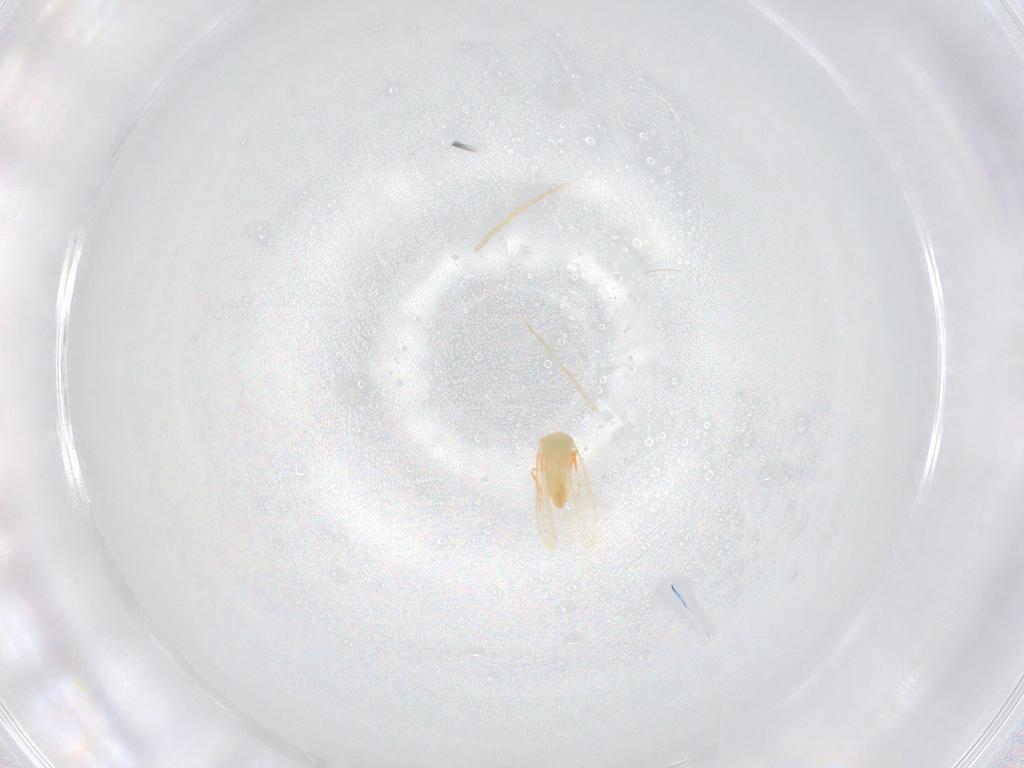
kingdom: Animalia
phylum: Arthropoda
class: Insecta
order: Hemiptera
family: Aleyrodidae
